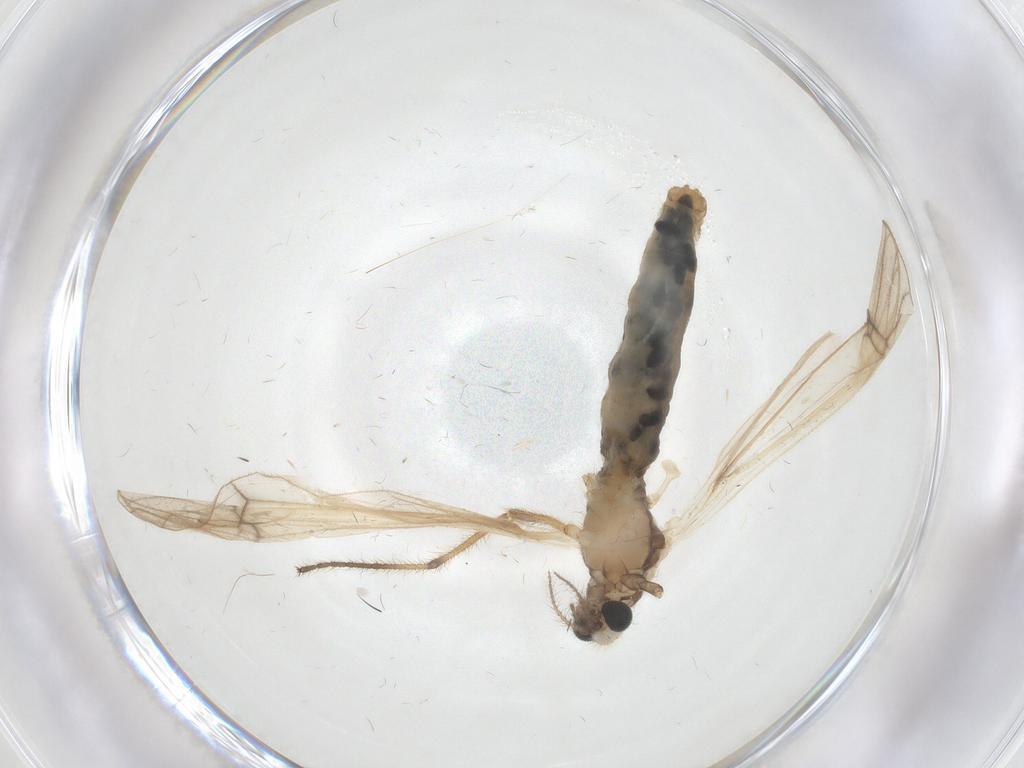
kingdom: Animalia
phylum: Arthropoda
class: Insecta
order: Diptera
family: Limoniidae
